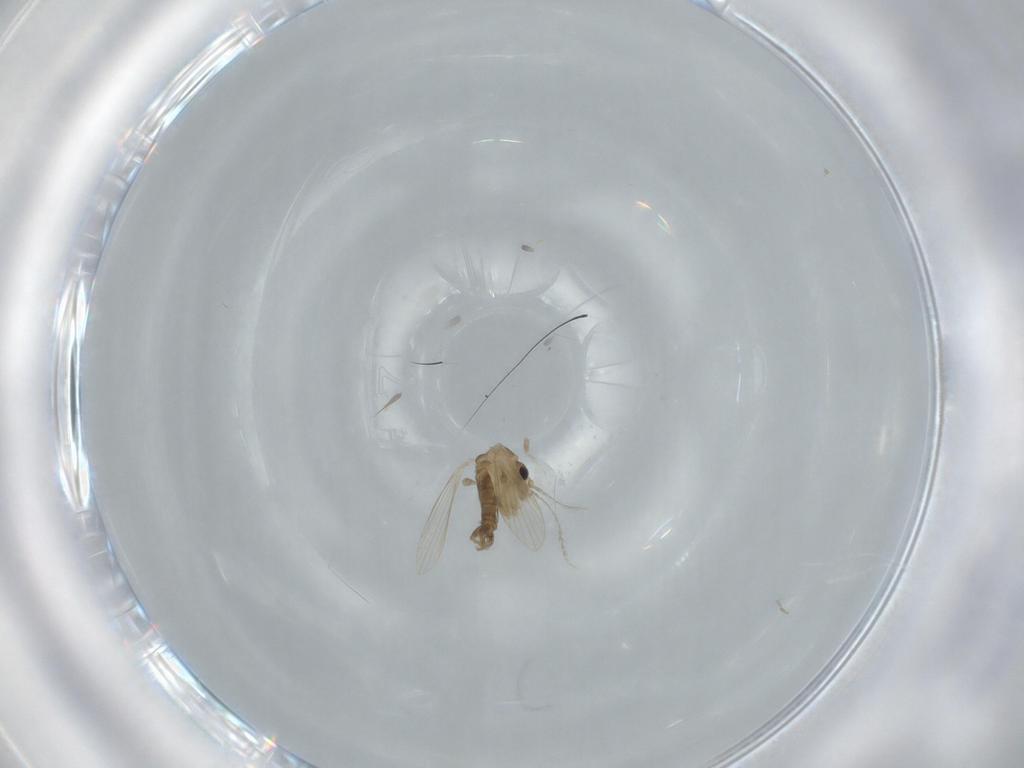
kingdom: Animalia
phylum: Arthropoda
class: Insecta
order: Diptera
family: Psychodidae
